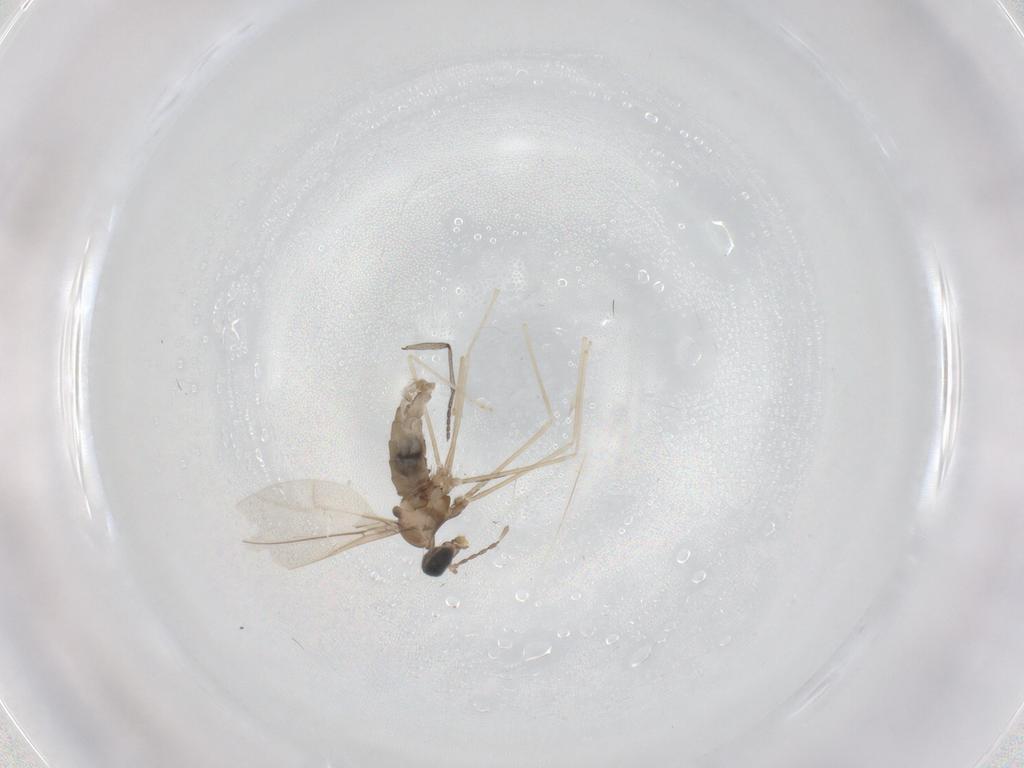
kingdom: Animalia
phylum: Arthropoda
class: Insecta
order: Diptera
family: Cecidomyiidae
